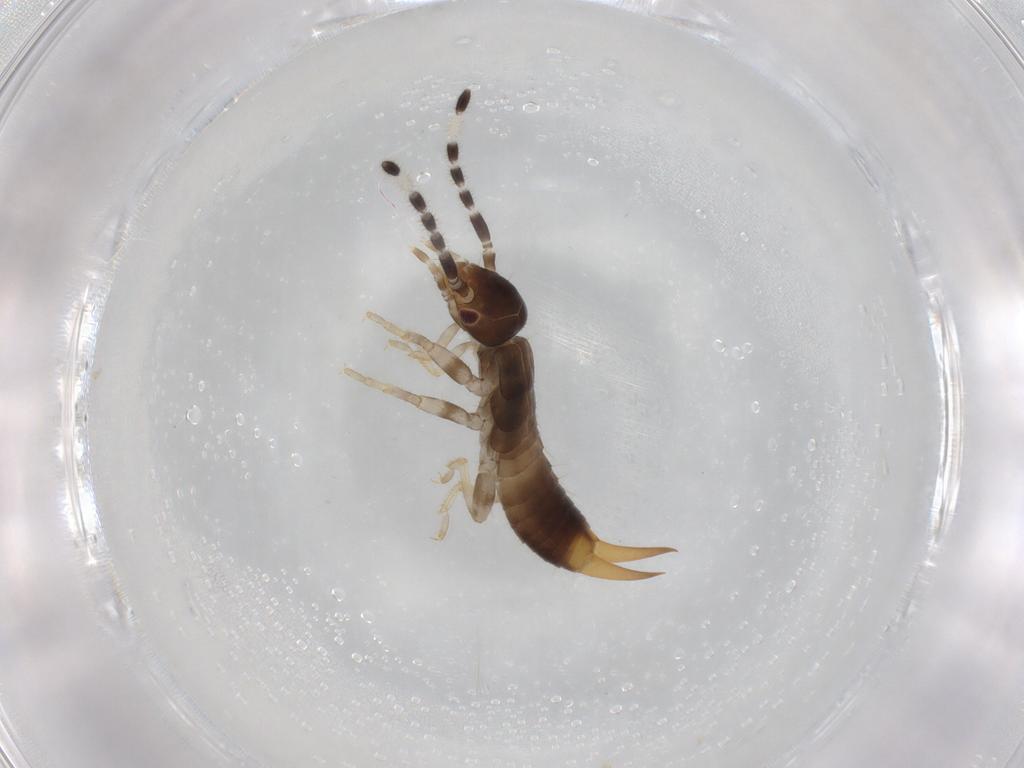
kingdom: Animalia
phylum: Arthropoda
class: Insecta
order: Dermaptera
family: Anisolabididae
